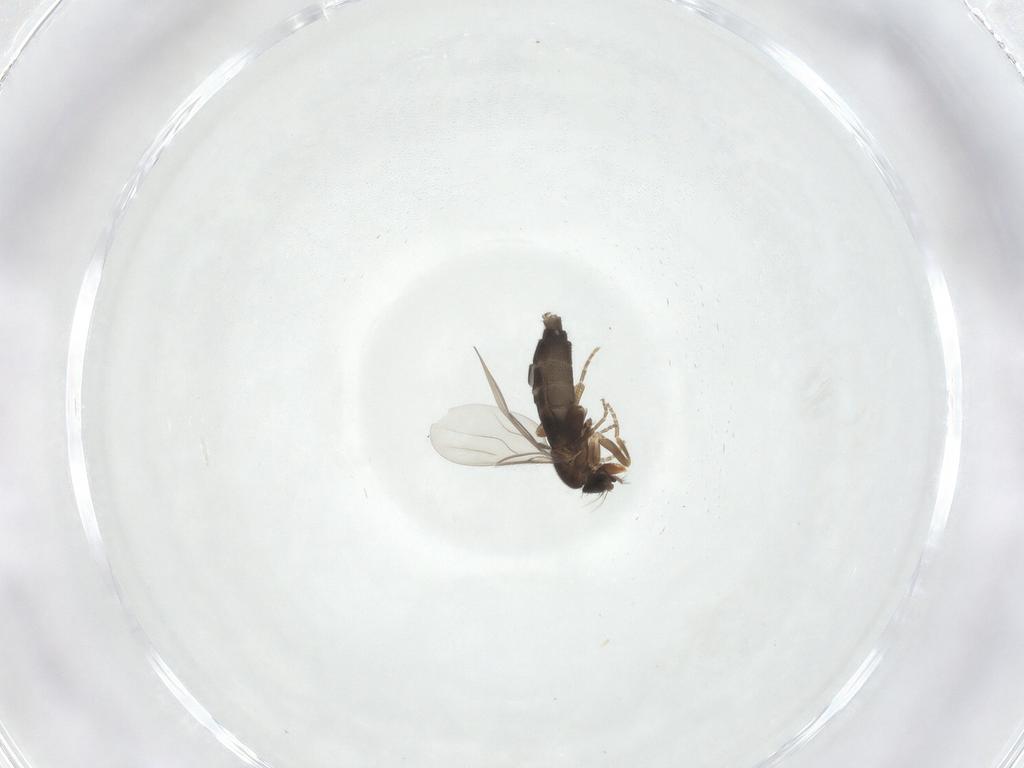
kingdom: Animalia
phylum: Arthropoda
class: Insecta
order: Diptera
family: Phoridae
